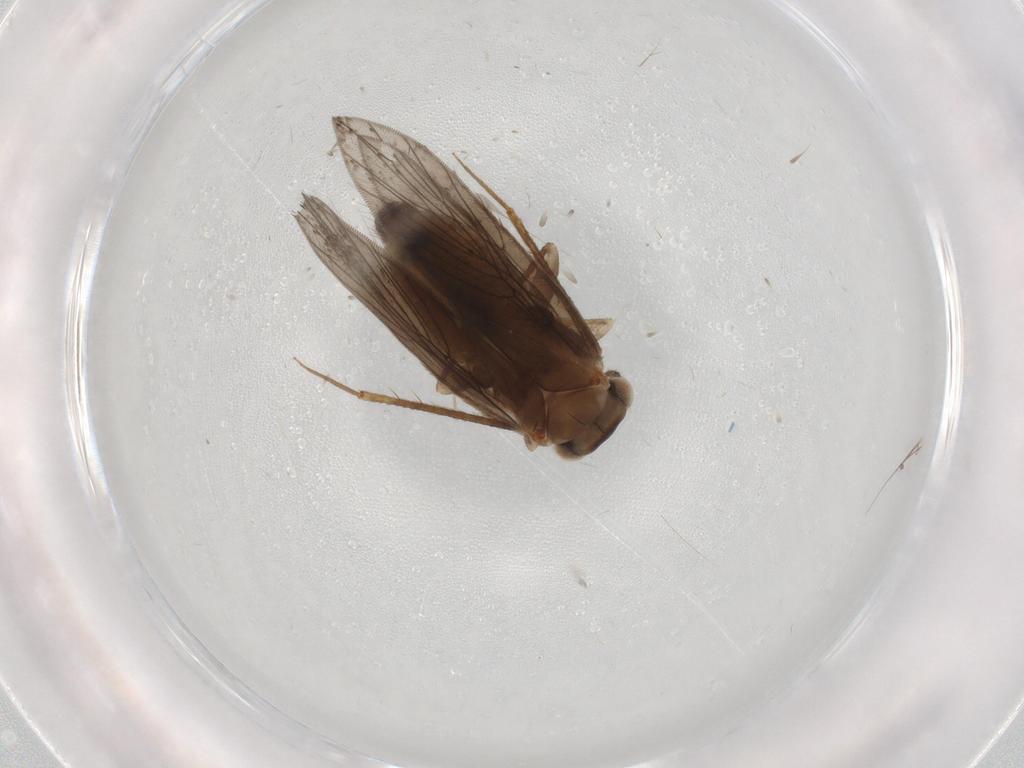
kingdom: Animalia
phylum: Arthropoda
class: Insecta
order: Psocodea
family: Lepidopsocidae
